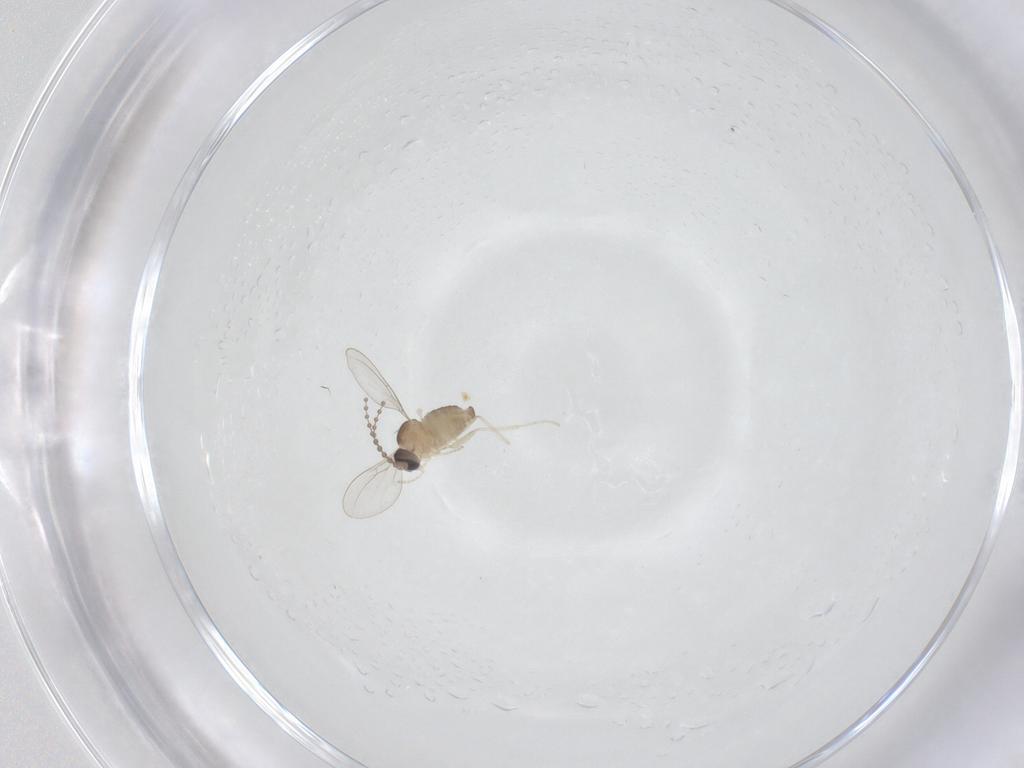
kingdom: Animalia
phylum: Arthropoda
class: Insecta
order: Diptera
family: Cecidomyiidae
